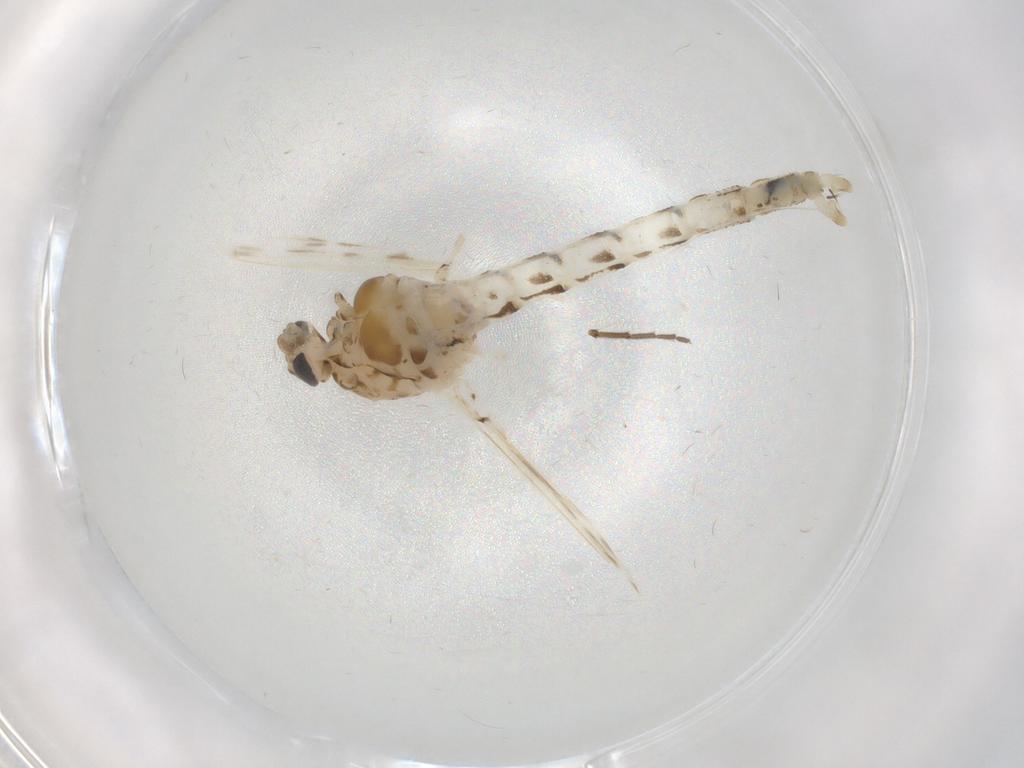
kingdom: Animalia
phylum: Arthropoda
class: Insecta
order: Diptera
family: Chaoboridae
